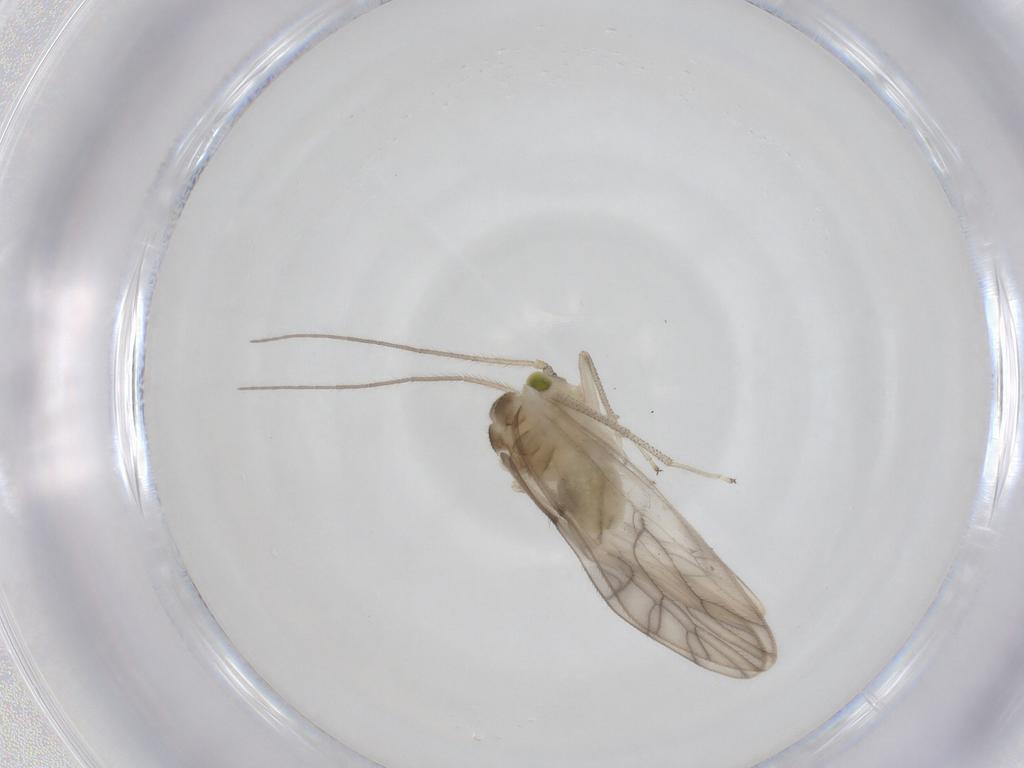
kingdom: Animalia
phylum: Arthropoda
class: Insecta
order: Psocodea
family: Caeciliusidae
